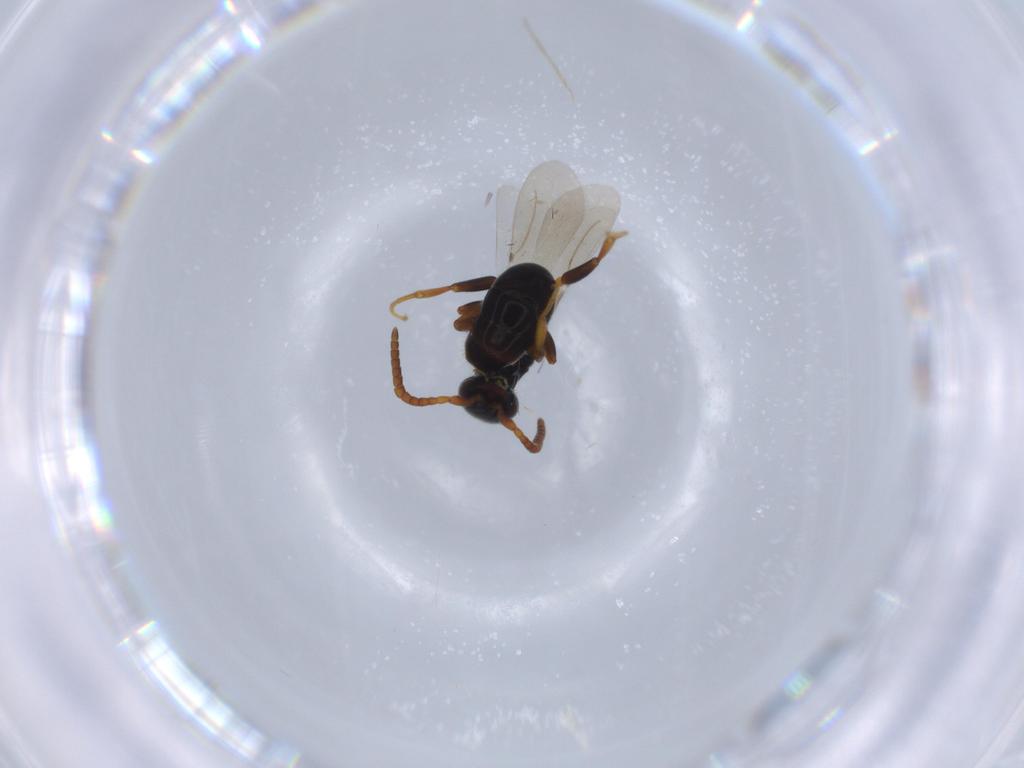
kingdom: Animalia
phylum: Arthropoda
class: Insecta
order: Hymenoptera
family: Bethylidae
